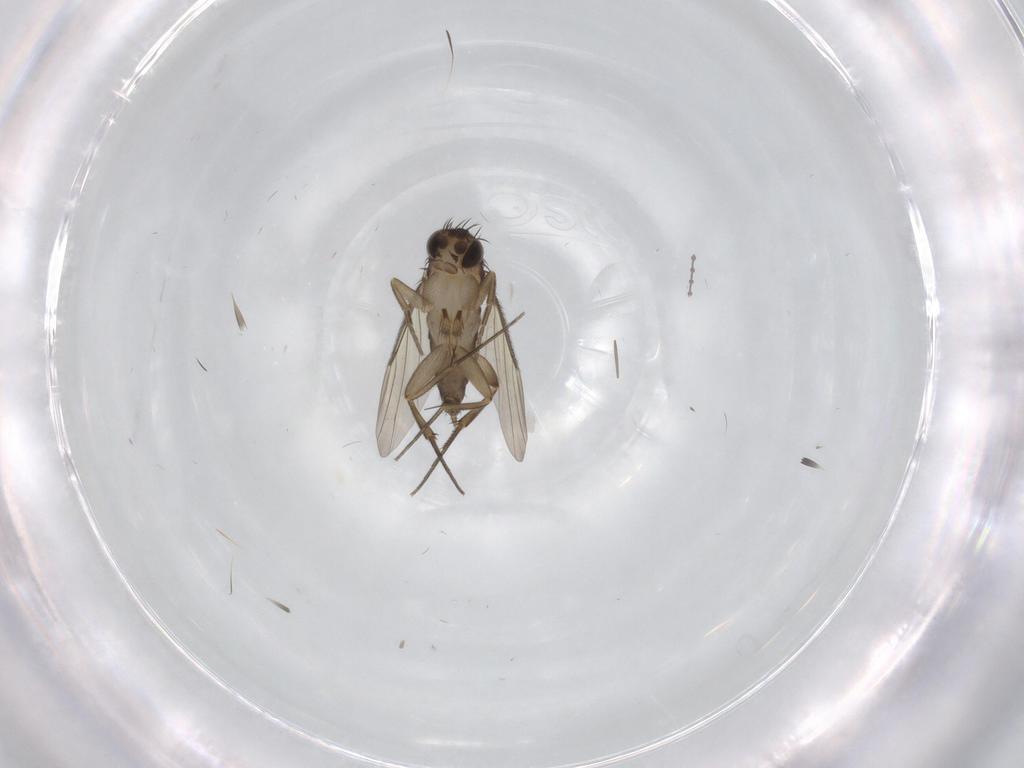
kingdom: Animalia
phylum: Arthropoda
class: Insecta
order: Diptera
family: Phoridae
